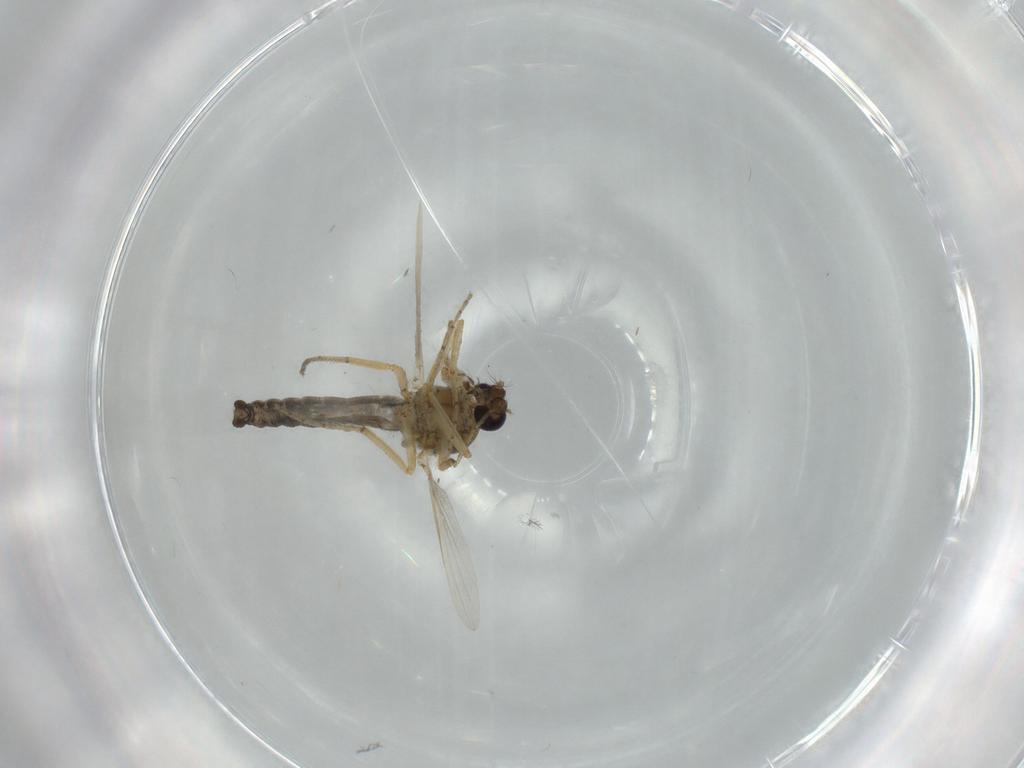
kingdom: Animalia
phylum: Arthropoda
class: Insecta
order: Diptera
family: Ceratopogonidae
